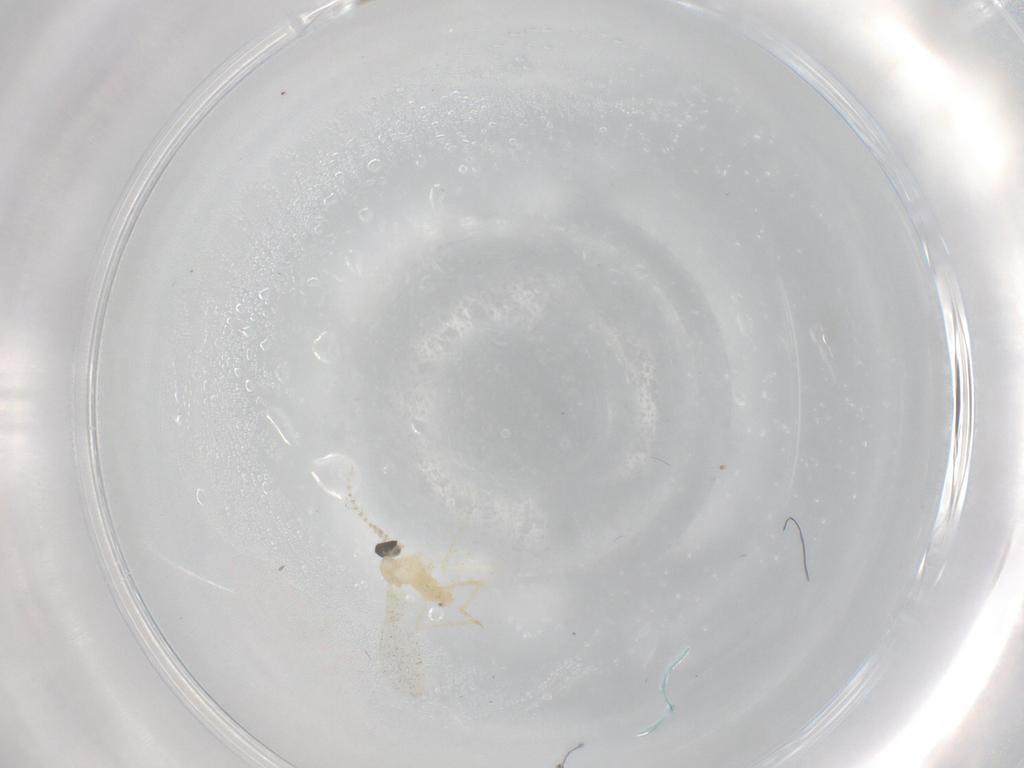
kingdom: Animalia
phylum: Arthropoda
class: Insecta
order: Diptera
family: Cecidomyiidae
